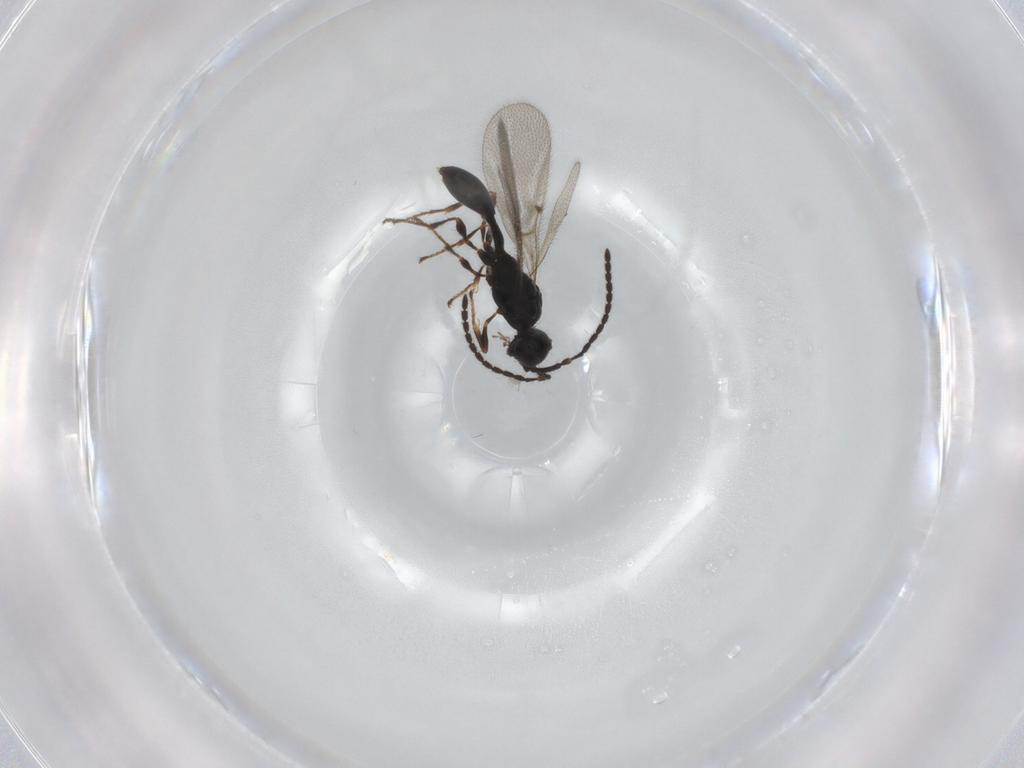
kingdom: Animalia
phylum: Arthropoda
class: Insecta
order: Hymenoptera
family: Diapriidae
